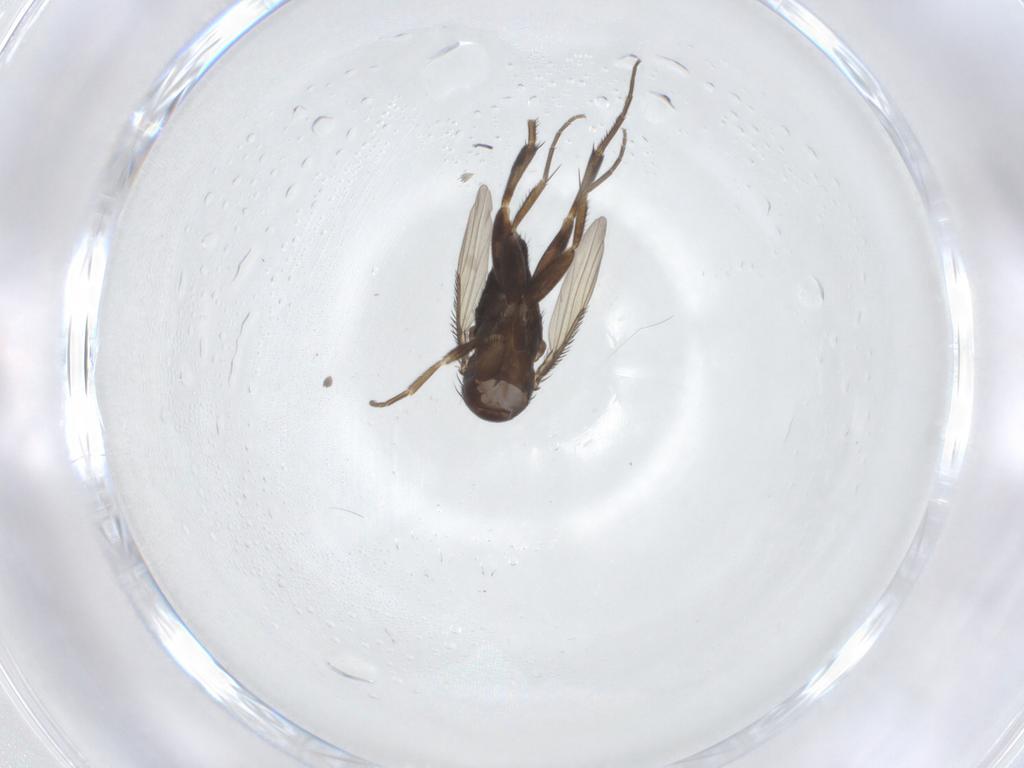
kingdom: Animalia
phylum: Arthropoda
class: Insecta
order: Diptera
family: Phoridae
